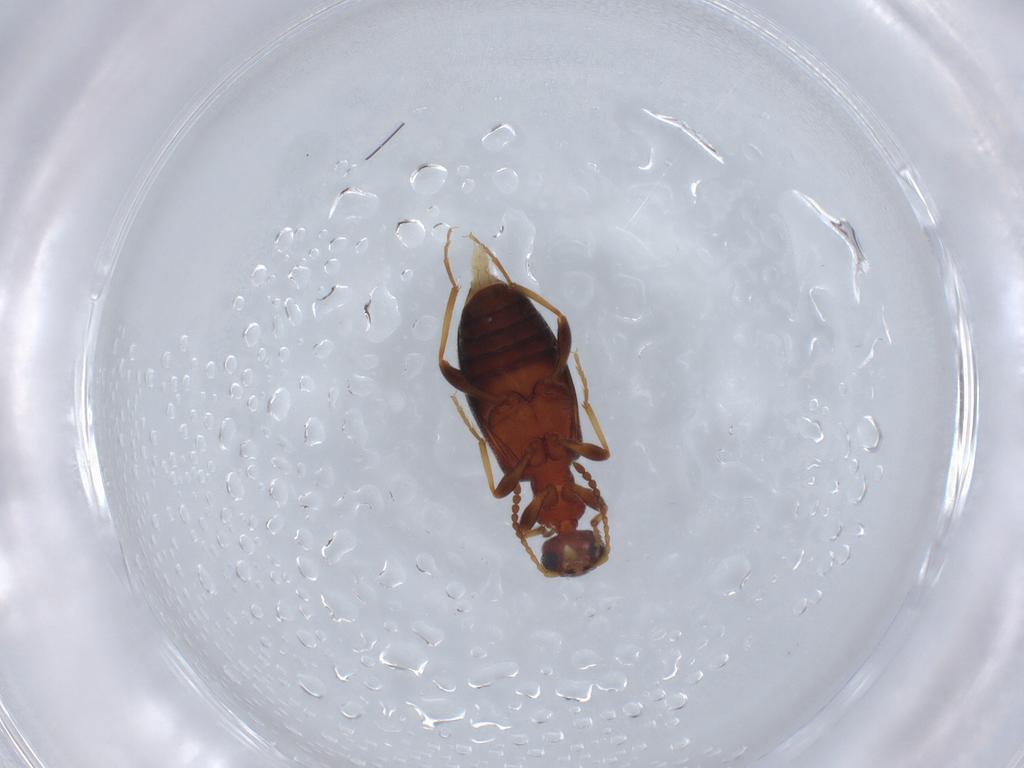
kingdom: Animalia
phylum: Arthropoda
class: Insecta
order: Coleoptera
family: Anthicidae
